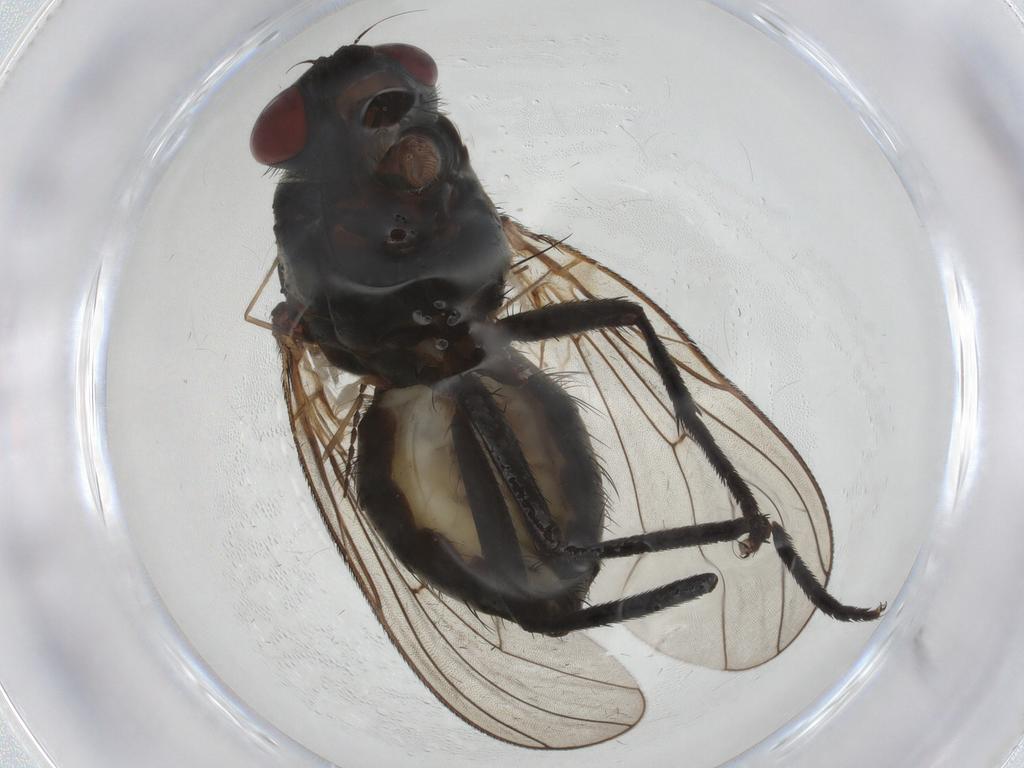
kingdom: Animalia
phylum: Arthropoda
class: Insecta
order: Diptera
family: Anthomyiidae
